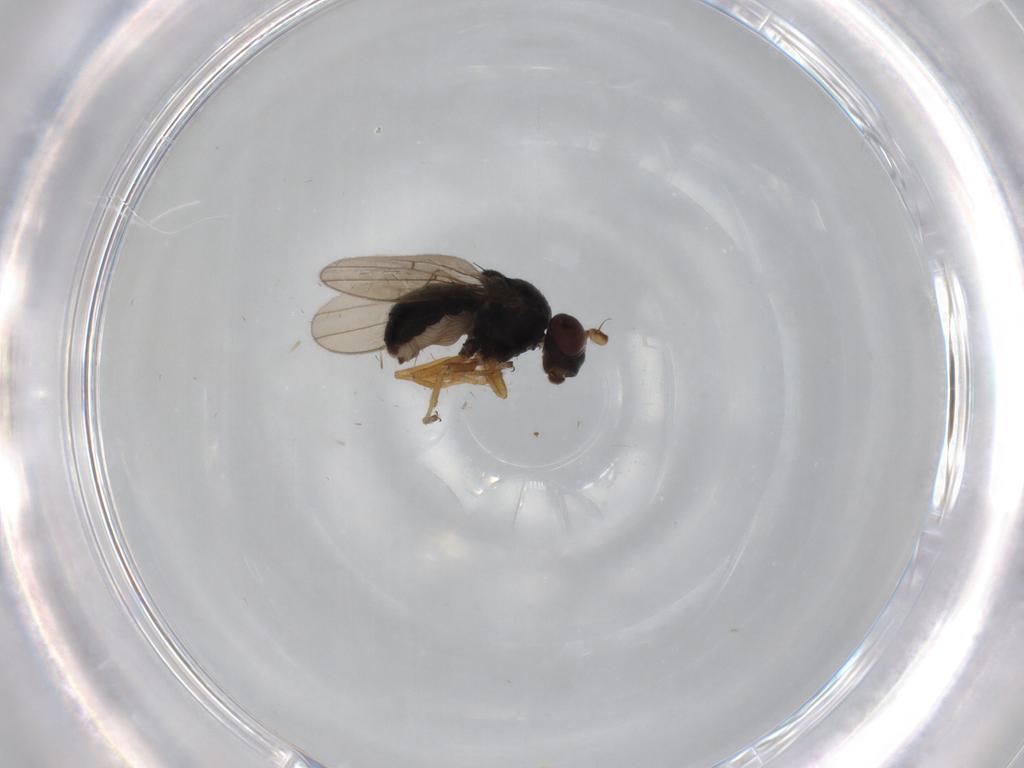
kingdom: Animalia
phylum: Arthropoda
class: Insecta
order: Diptera
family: Ephydridae
